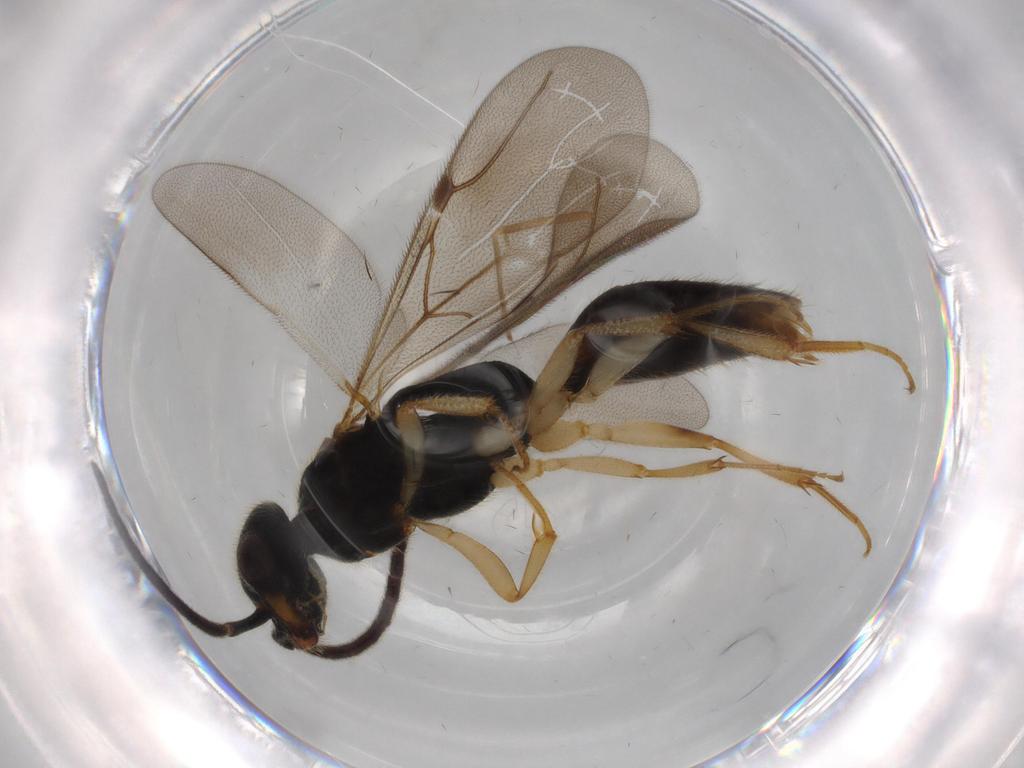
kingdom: Animalia
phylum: Arthropoda
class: Insecta
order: Hymenoptera
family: Bethylidae
